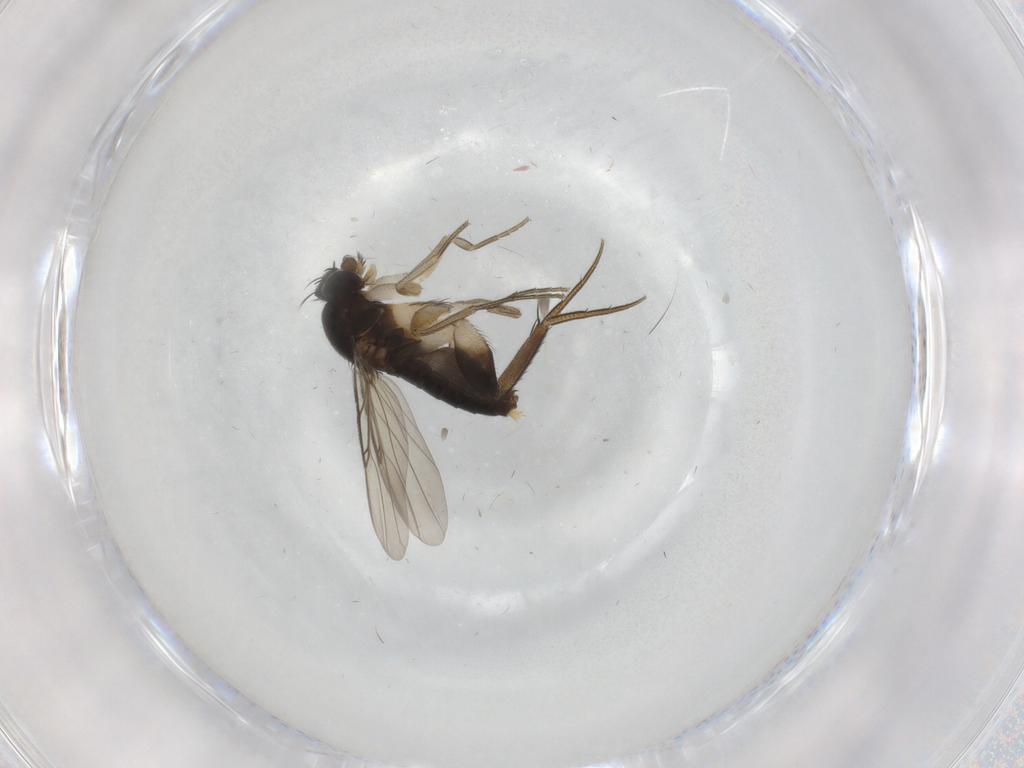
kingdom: Animalia
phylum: Arthropoda
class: Insecta
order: Diptera
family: Phoridae
